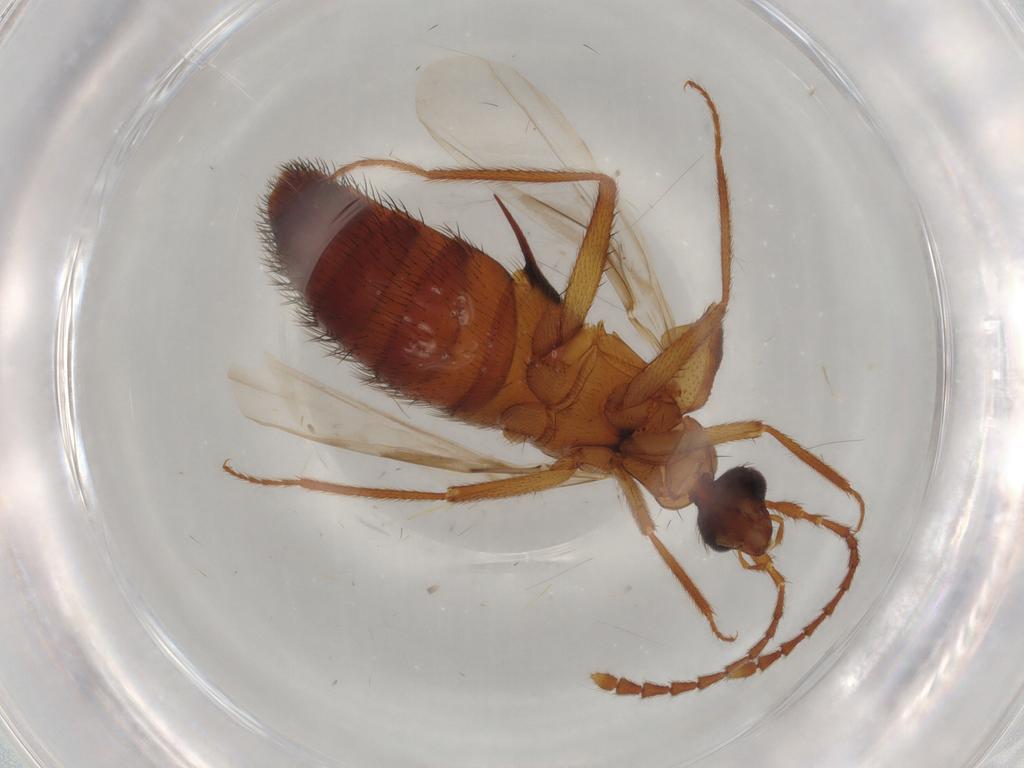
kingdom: Animalia
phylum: Arthropoda
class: Insecta
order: Coleoptera
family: Staphylinidae
